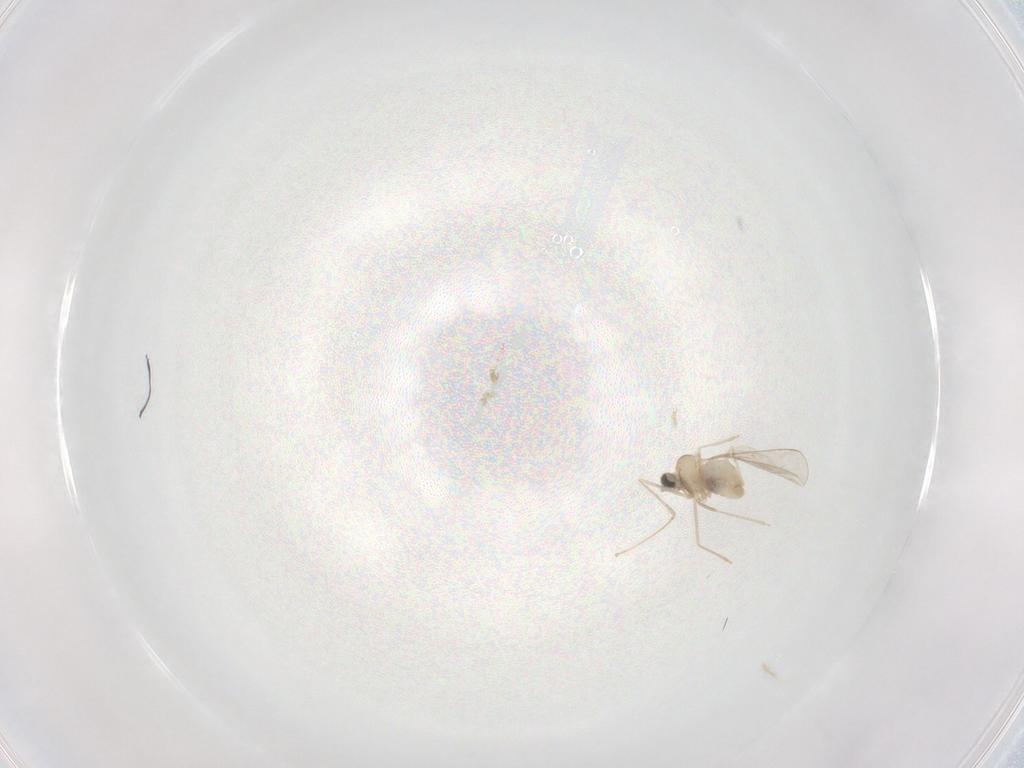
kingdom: Animalia
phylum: Arthropoda
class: Insecta
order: Diptera
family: Cecidomyiidae
